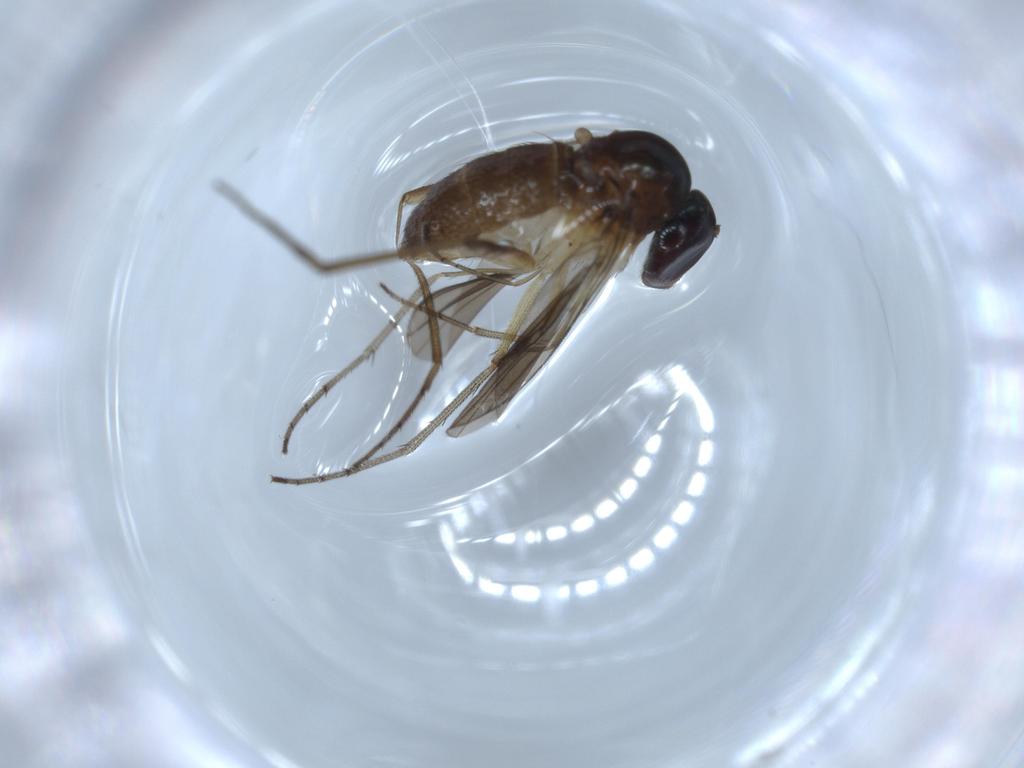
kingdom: Animalia
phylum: Arthropoda
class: Insecta
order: Diptera
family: Dolichopodidae
